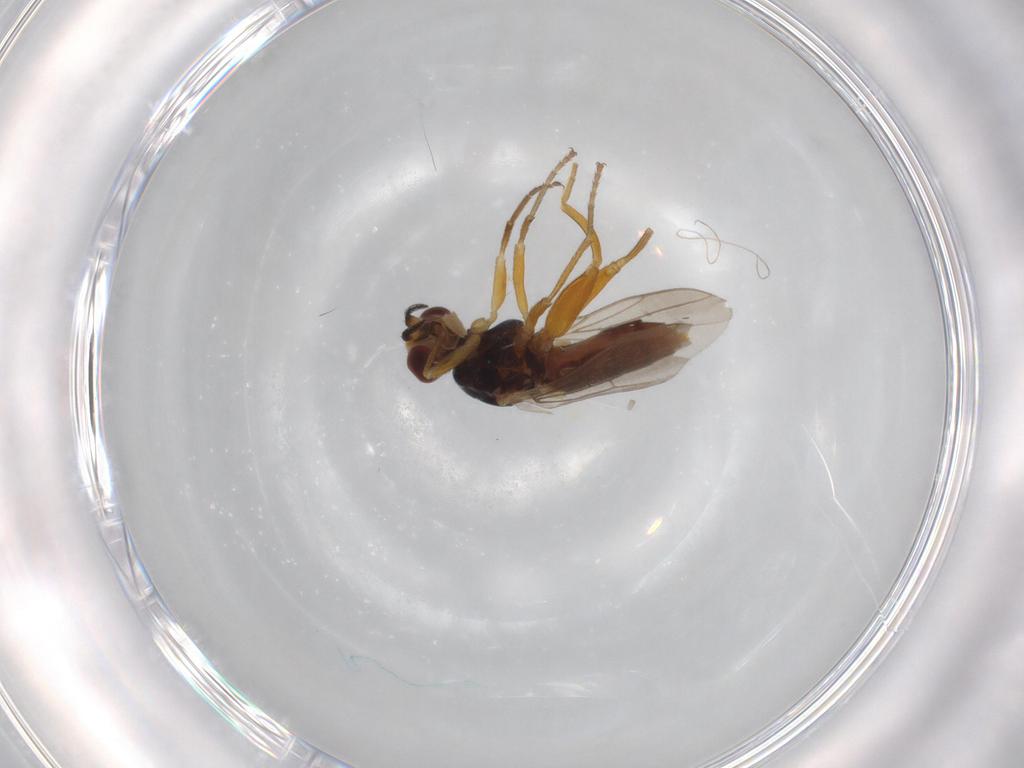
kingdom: Animalia
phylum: Arthropoda
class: Insecta
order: Diptera
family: Chloropidae
